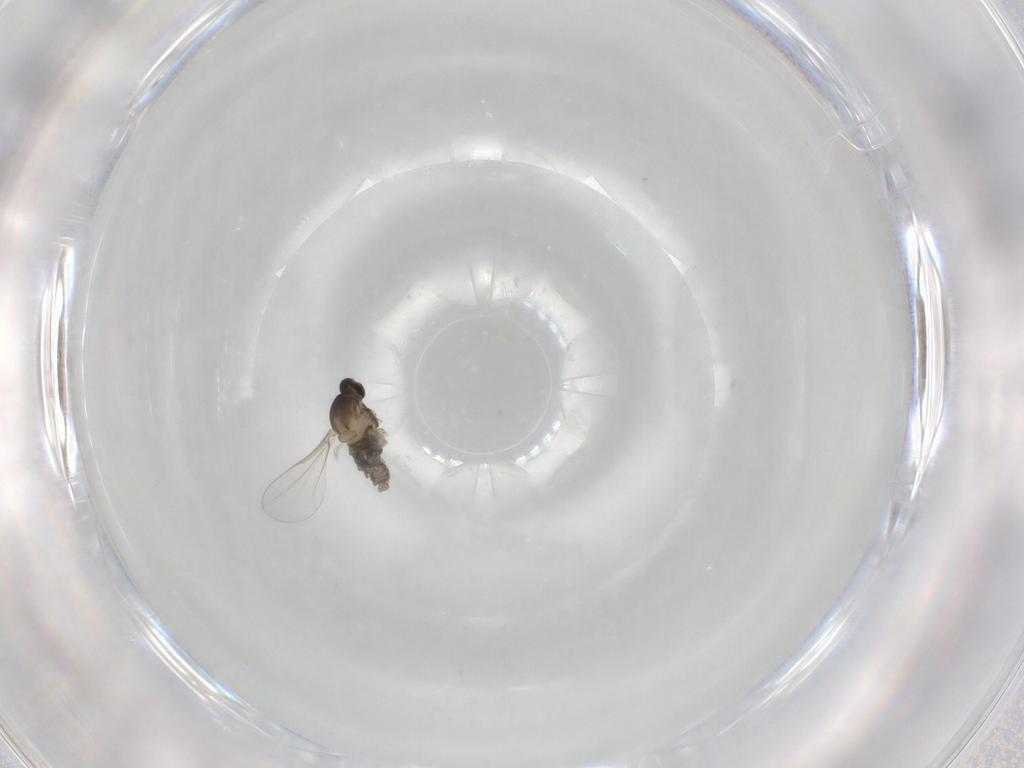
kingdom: Animalia
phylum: Arthropoda
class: Insecta
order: Diptera
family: Cecidomyiidae
